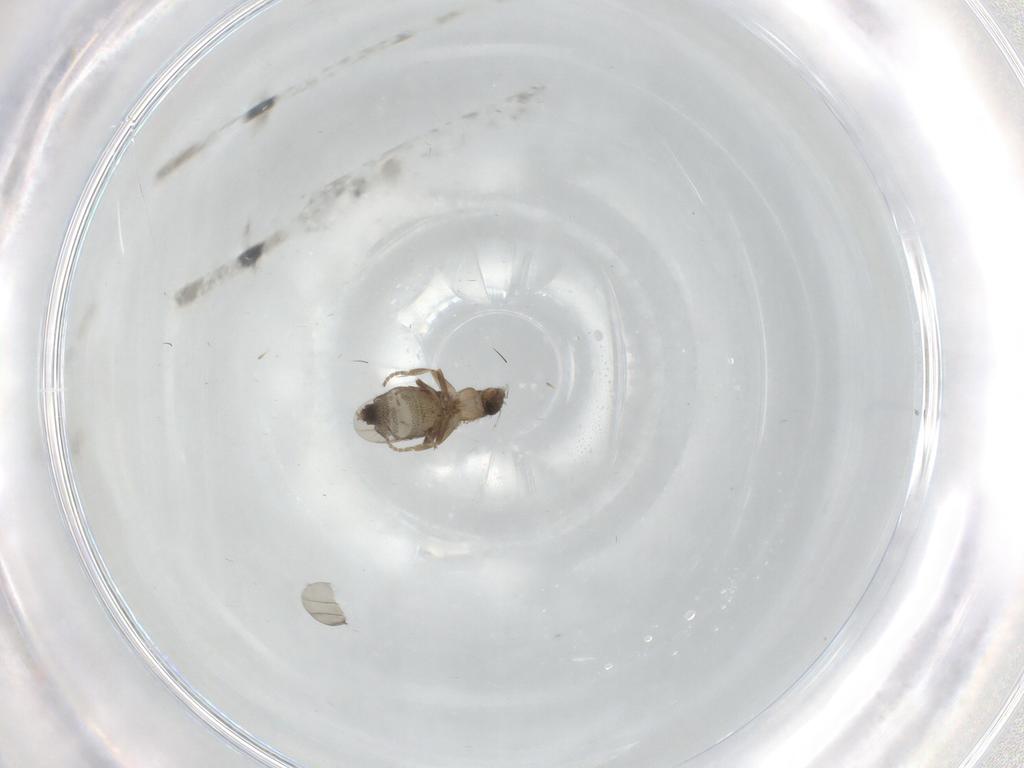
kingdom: Animalia
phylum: Arthropoda
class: Insecta
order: Diptera
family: Phoridae
